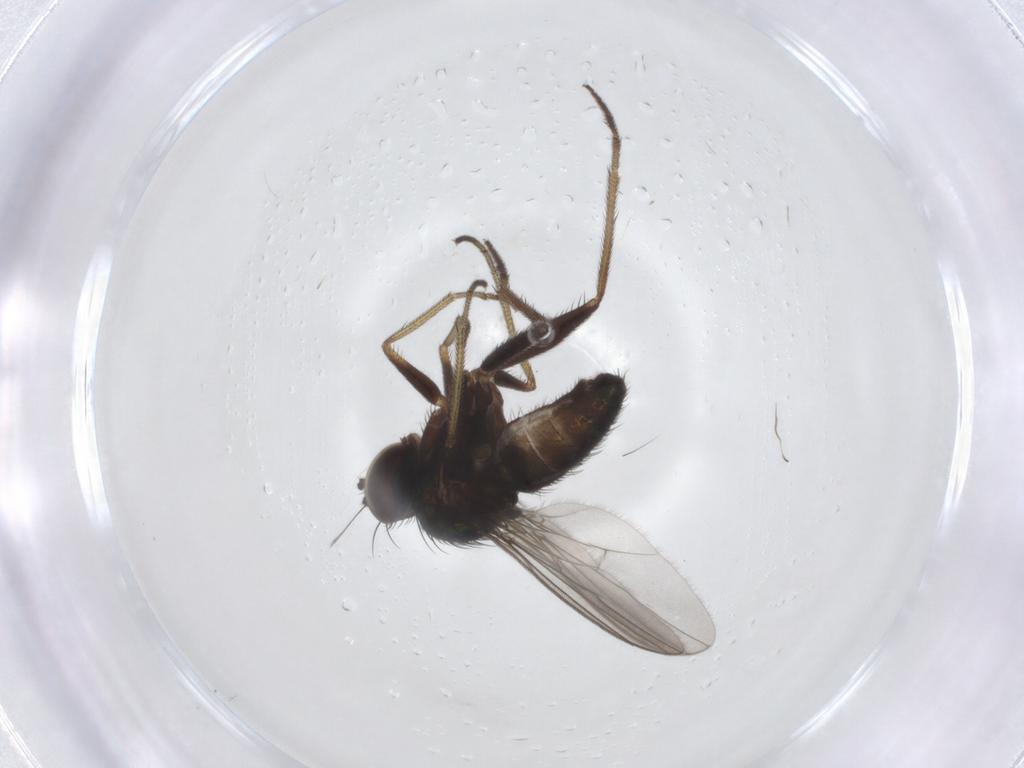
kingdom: Animalia
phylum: Arthropoda
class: Insecta
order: Diptera
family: Dolichopodidae
